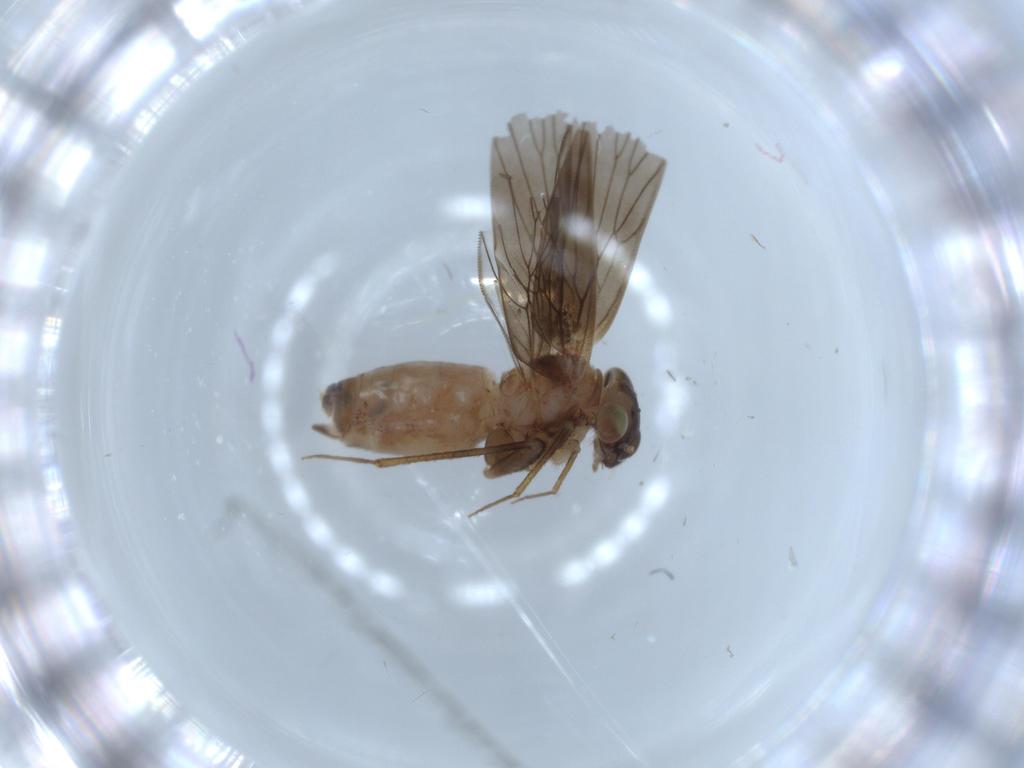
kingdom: Animalia
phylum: Arthropoda
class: Insecta
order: Psocodea
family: Lepidopsocidae
